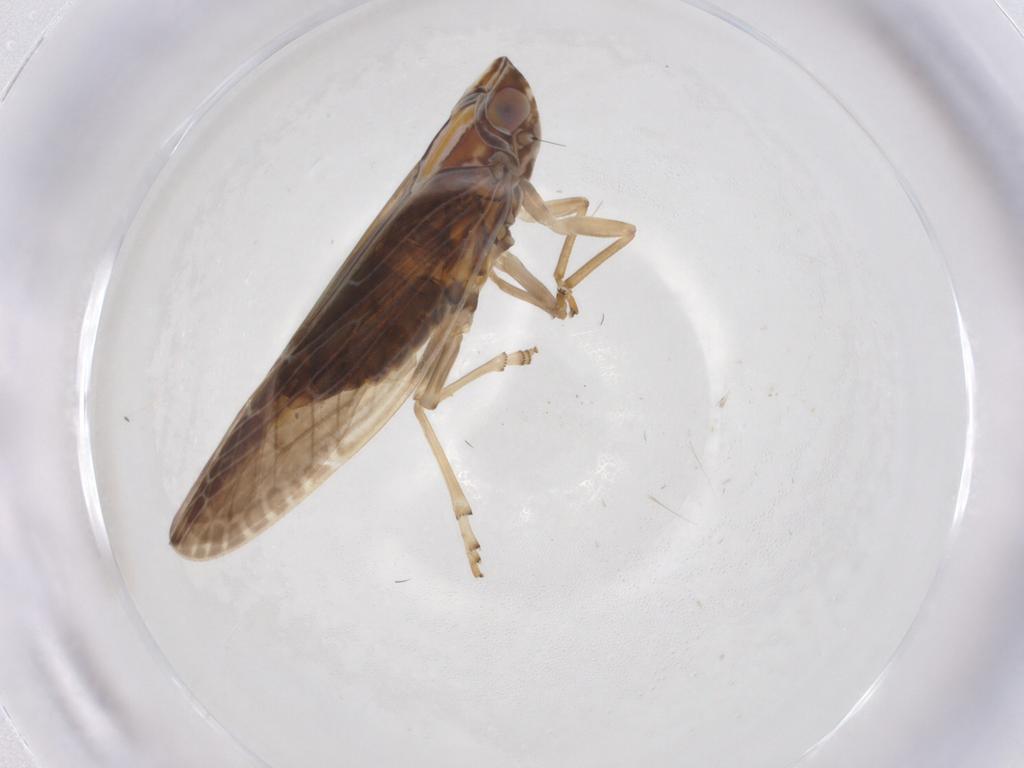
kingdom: Animalia
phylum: Arthropoda
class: Insecta
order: Hemiptera
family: Achilidae
